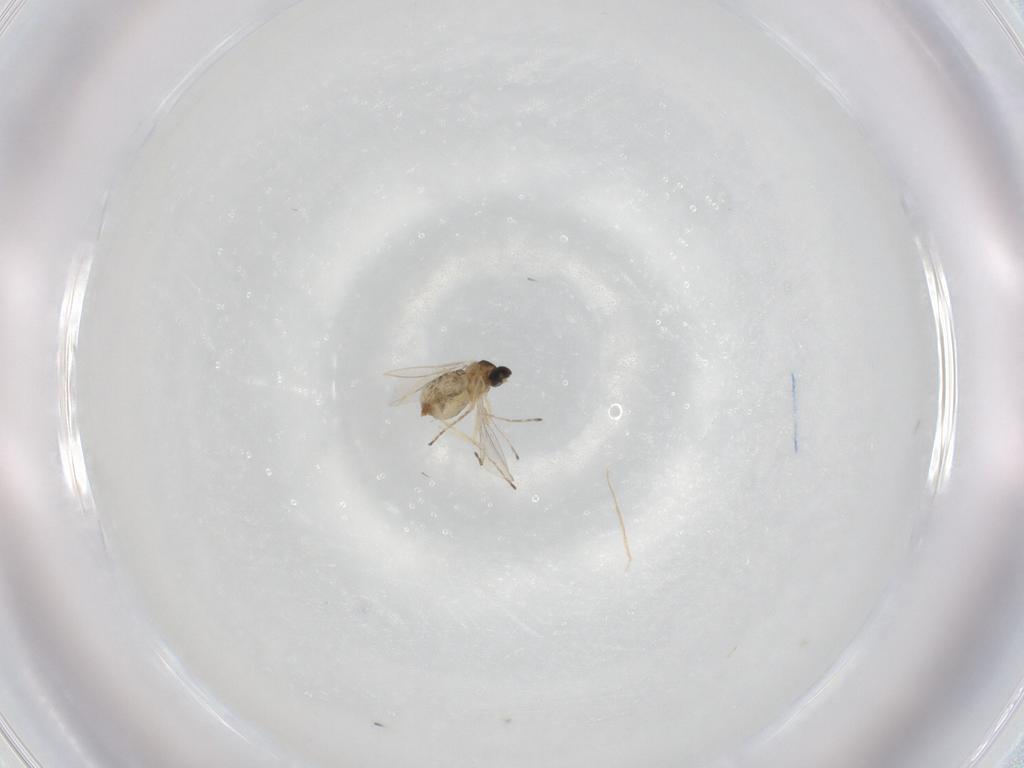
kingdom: Animalia
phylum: Arthropoda
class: Insecta
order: Diptera
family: Cecidomyiidae
